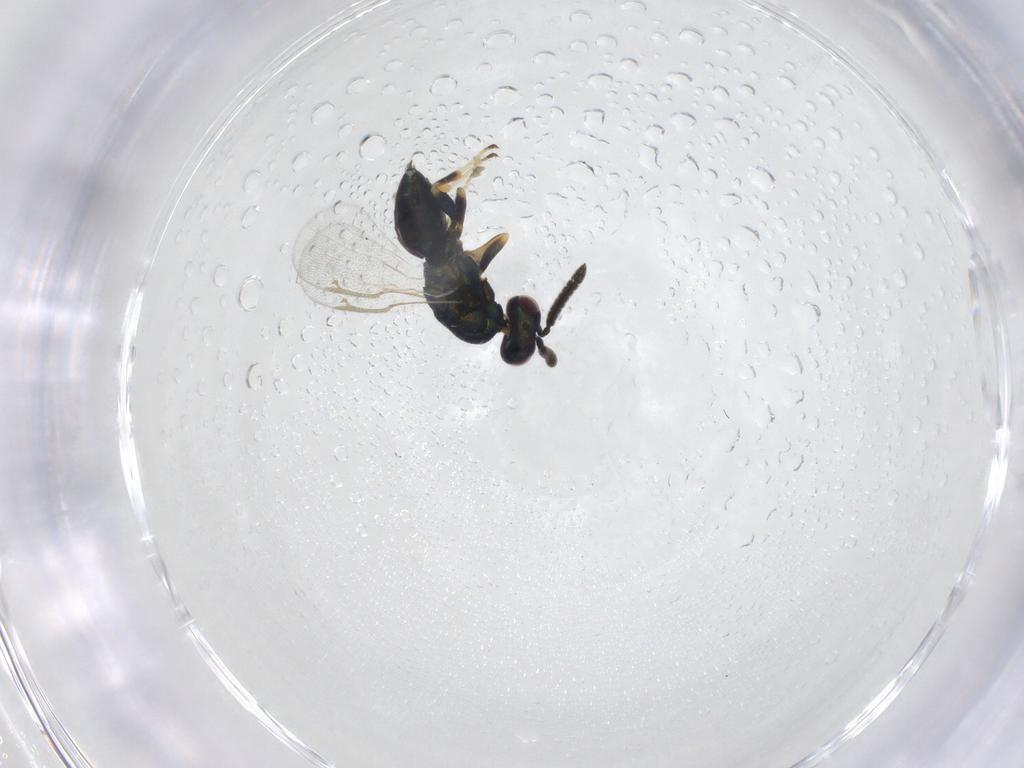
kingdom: Animalia
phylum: Arthropoda
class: Insecta
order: Hymenoptera
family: Torymidae
